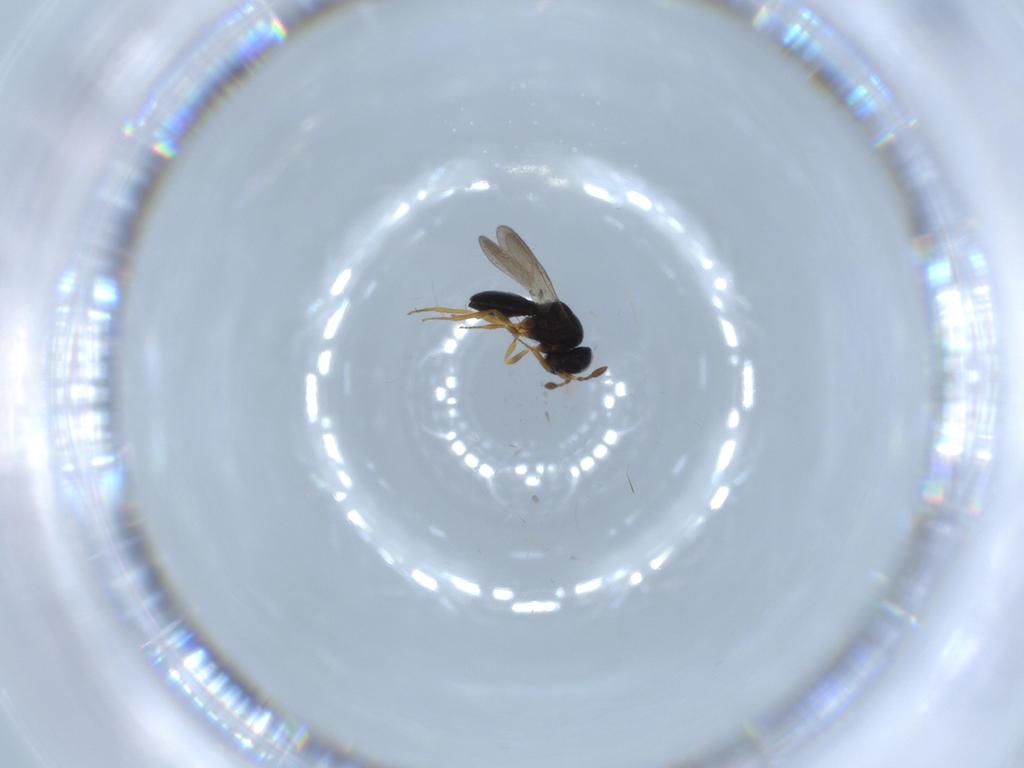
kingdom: Animalia
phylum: Arthropoda
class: Insecta
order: Hymenoptera
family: Scelionidae
